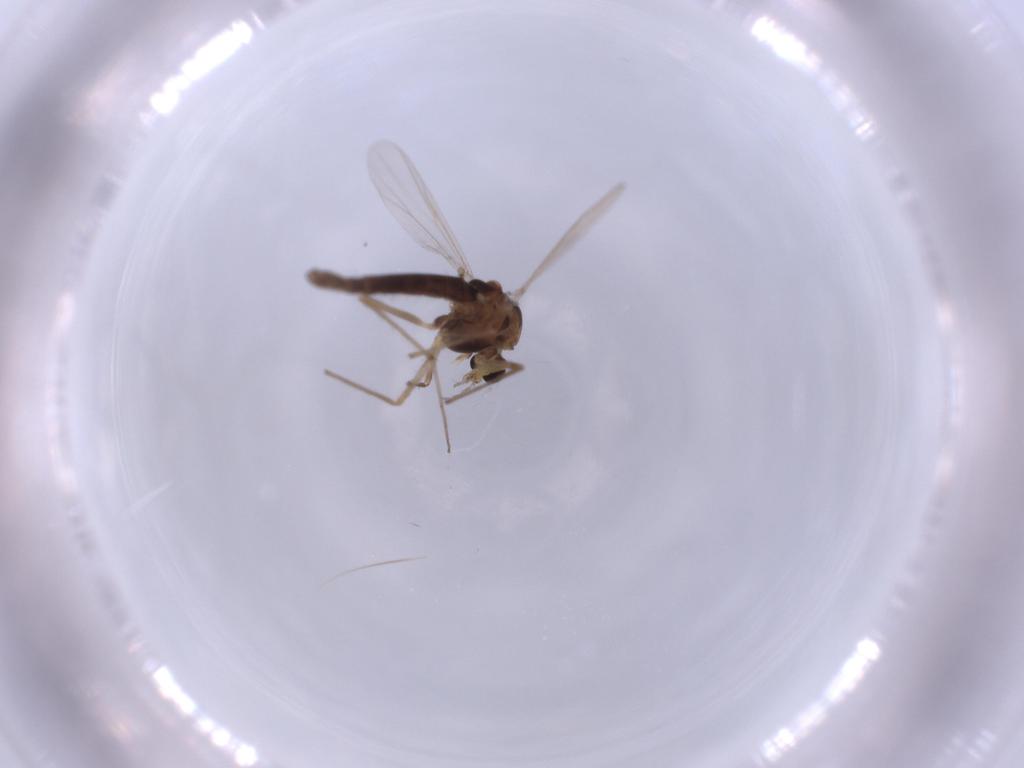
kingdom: Animalia
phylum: Arthropoda
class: Insecta
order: Diptera
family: Chironomidae
